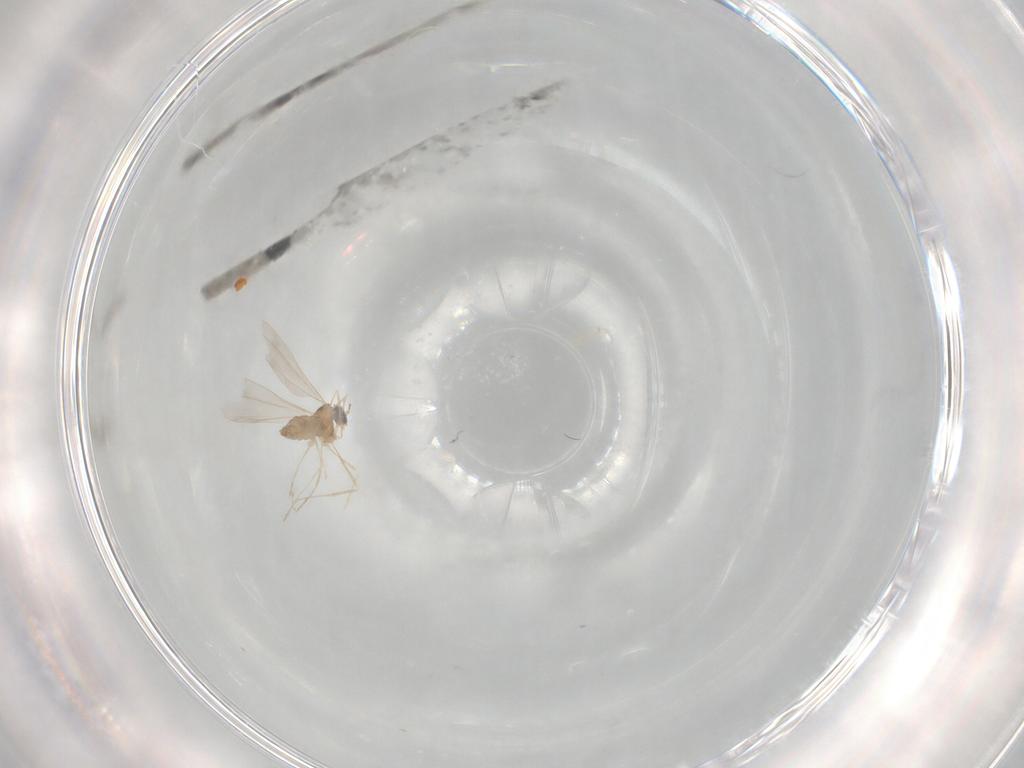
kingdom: Animalia
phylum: Arthropoda
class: Insecta
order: Diptera
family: Cecidomyiidae
